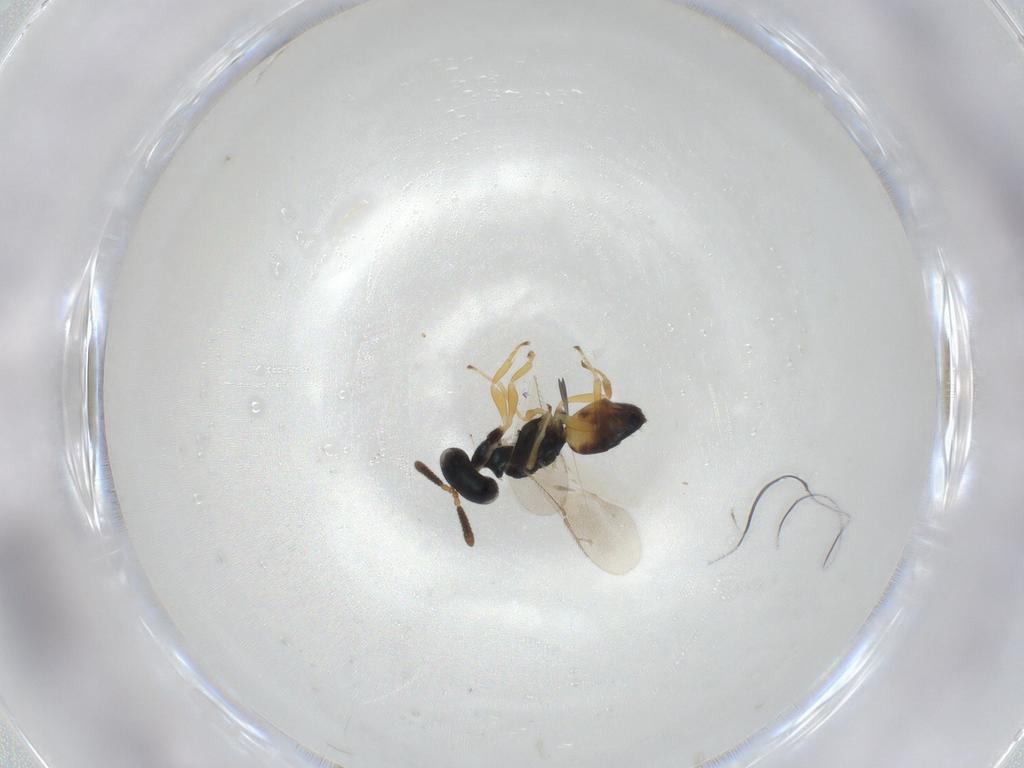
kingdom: Animalia
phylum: Arthropoda
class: Insecta
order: Hymenoptera
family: Pteromalidae
